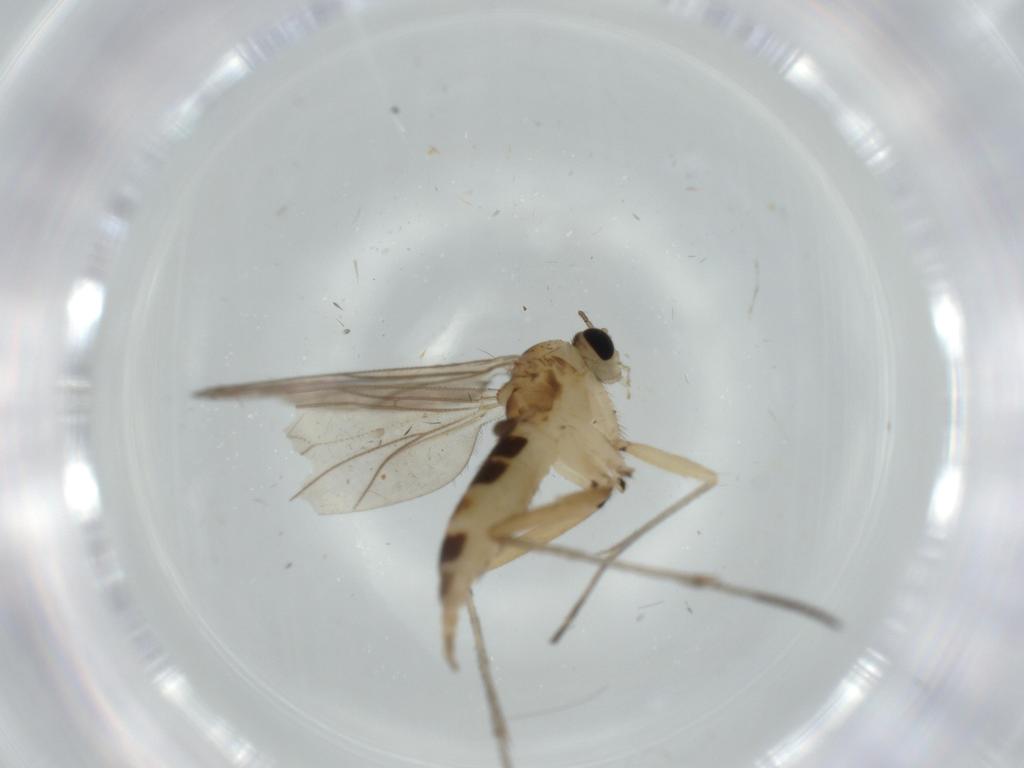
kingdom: Animalia
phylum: Arthropoda
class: Insecta
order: Diptera
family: Sciaridae
